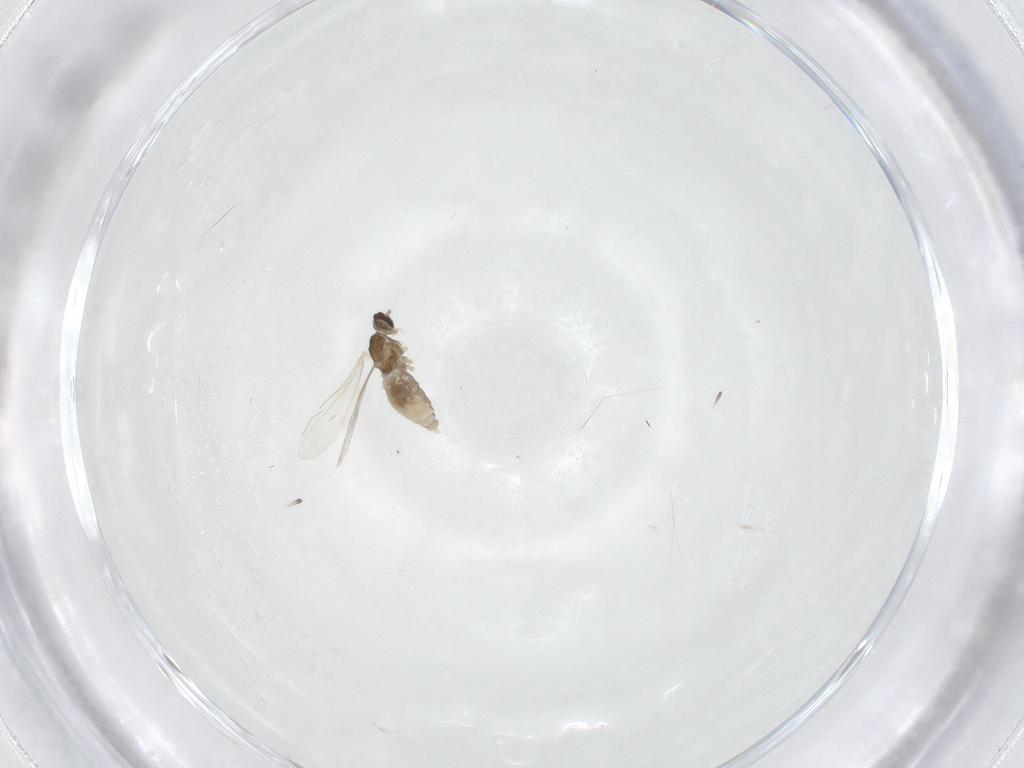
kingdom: Animalia
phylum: Arthropoda
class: Insecta
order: Diptera
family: Cecidomyiidae
